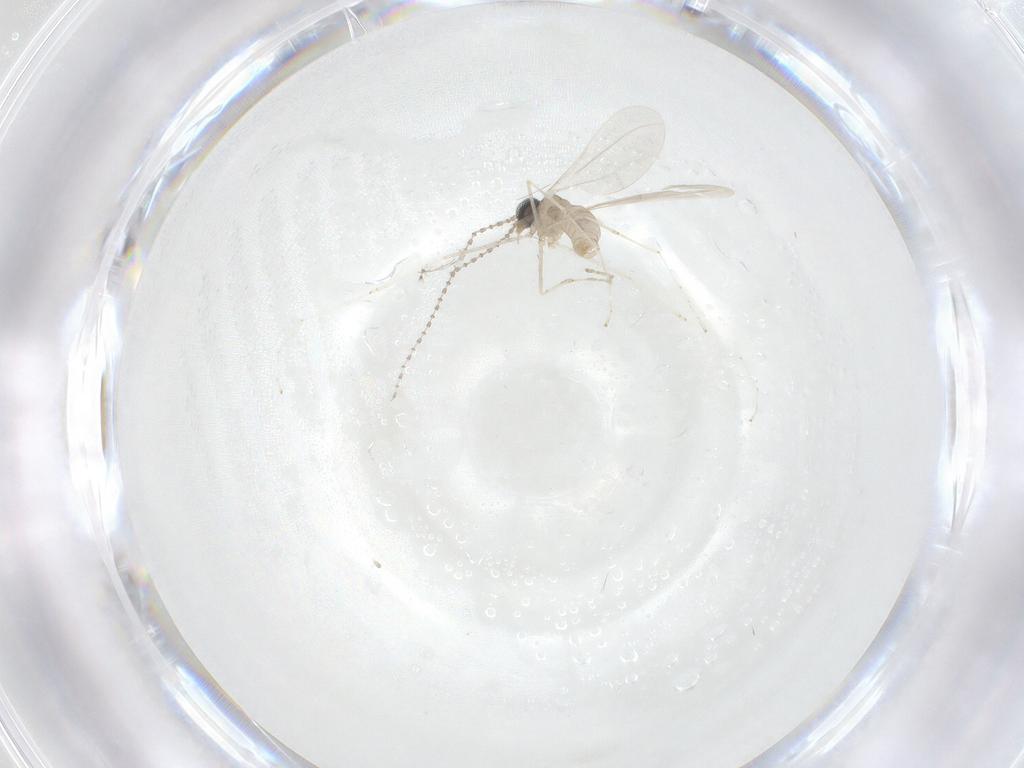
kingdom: Animalia
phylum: Arthropoda
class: Insecta
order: Diptera
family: Cecidomyiidae
